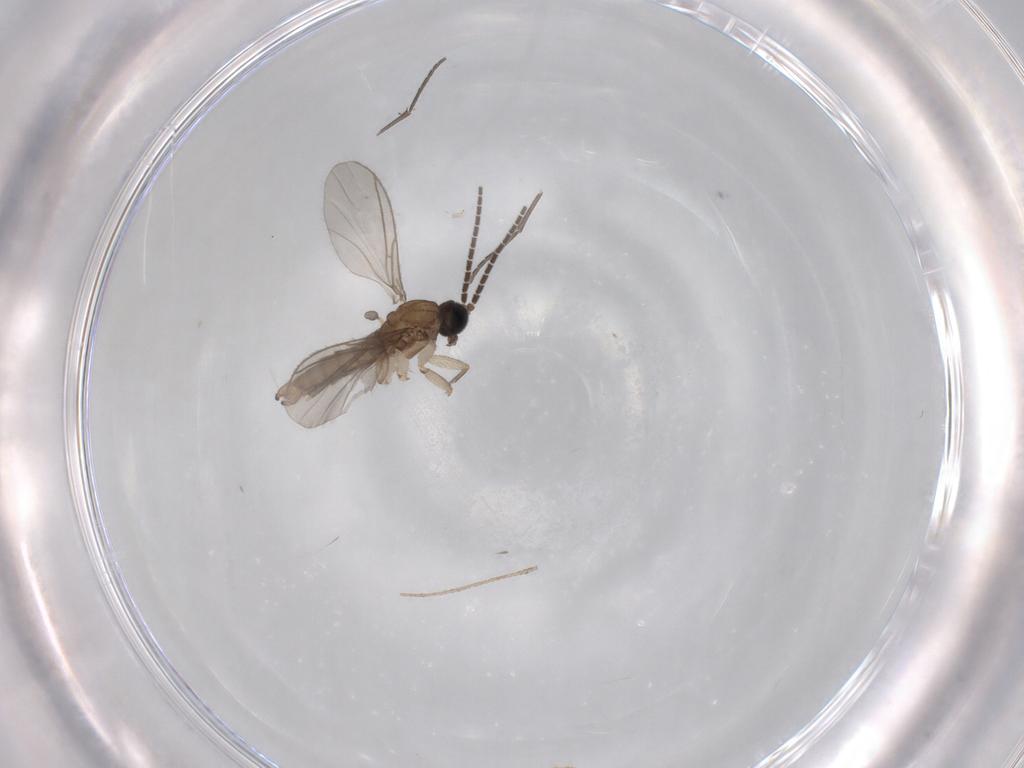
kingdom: Animalia
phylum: Arthropoda
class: Insecta
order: Diptera
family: Sciaridae
